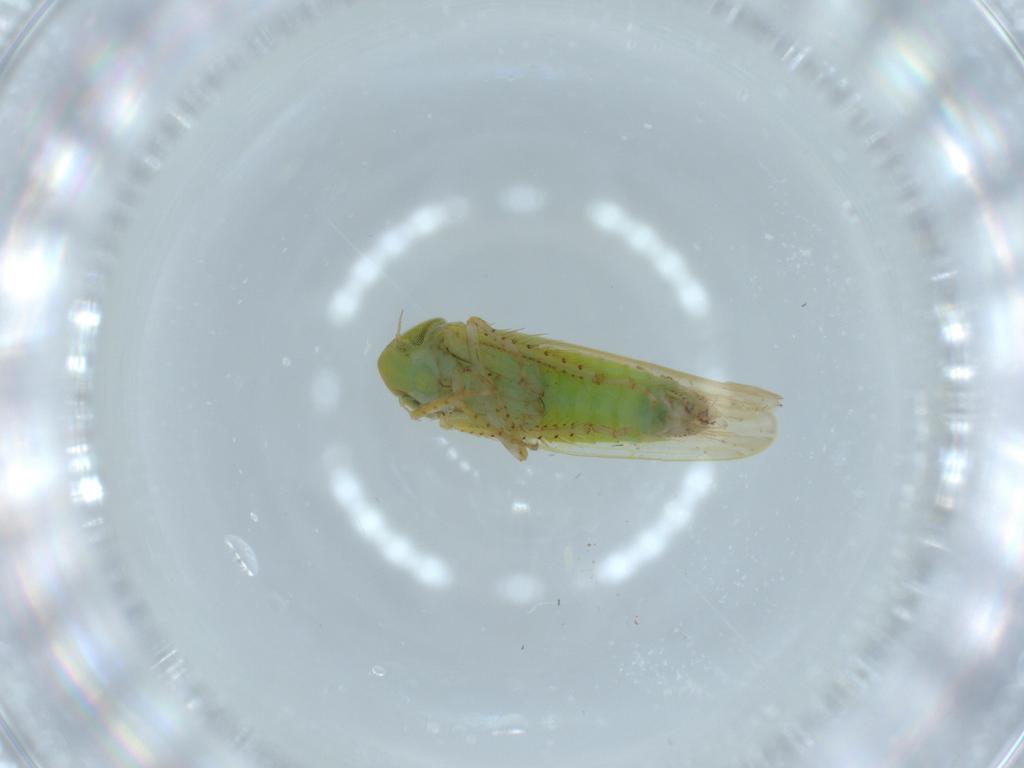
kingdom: Animalia
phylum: Arthropoda
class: Insecta
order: Hemiptera
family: Cicadellidae
